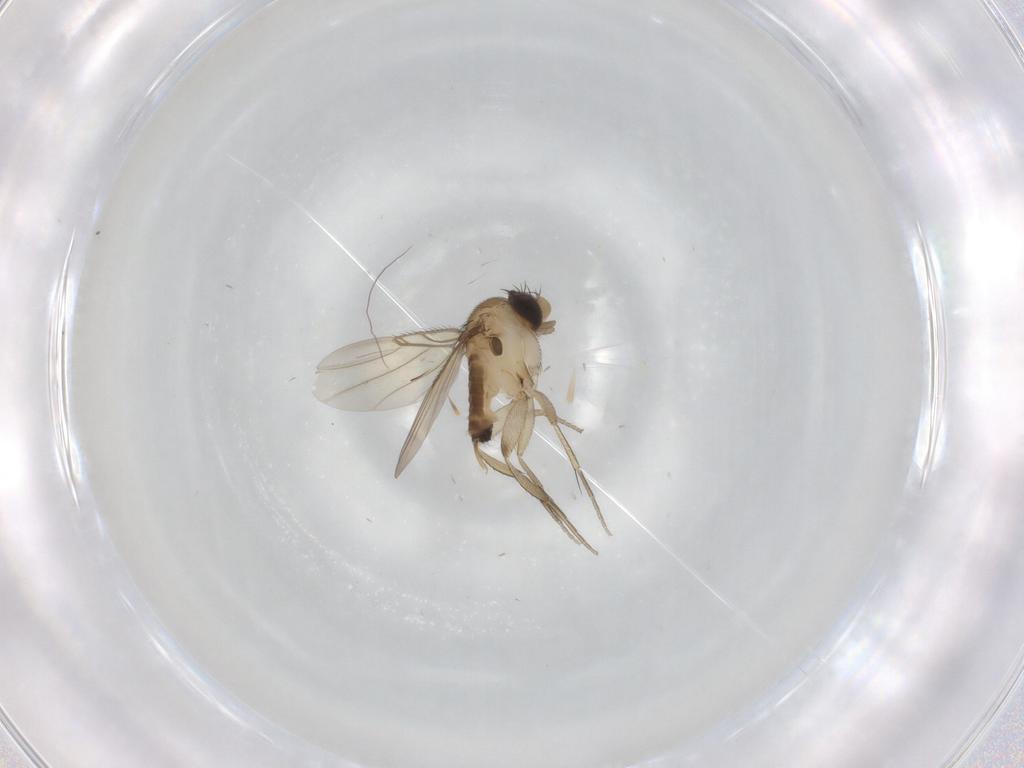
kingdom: Animalia
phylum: Arthropoda
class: Insecta
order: Diptera
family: Phoridae
